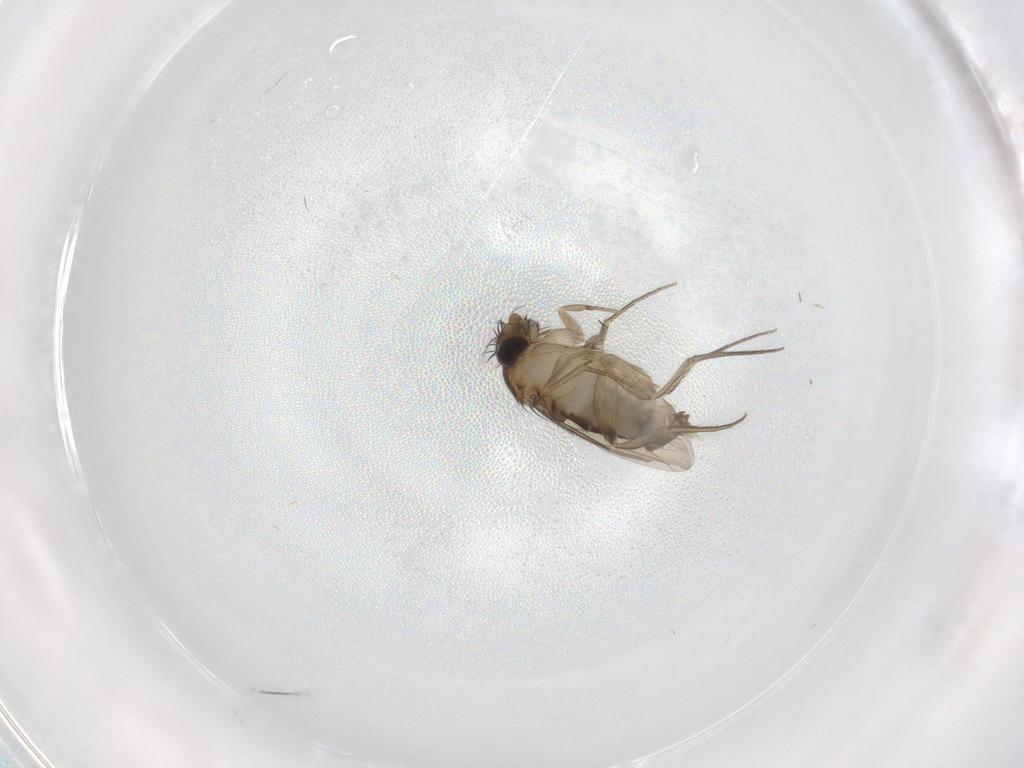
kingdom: Animalia
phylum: Arthropoda
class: Insecta
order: Diptera
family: Phoridae
